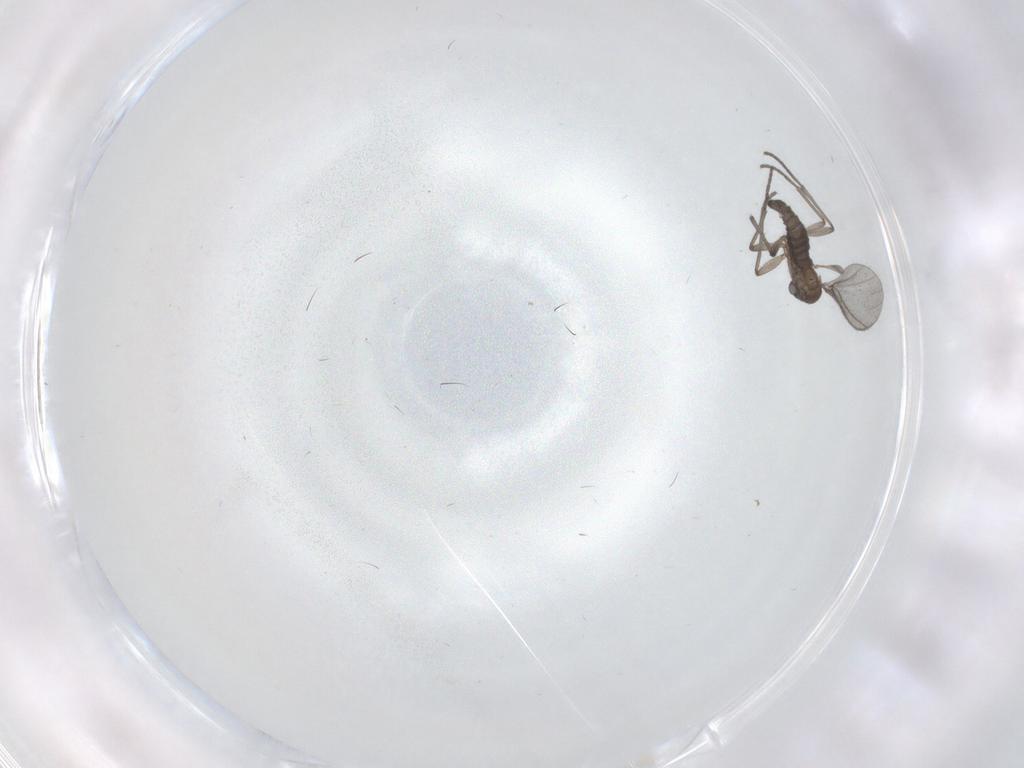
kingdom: Animalia
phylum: Arthropoda
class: Insecta
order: Diptera
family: Sciaridae
